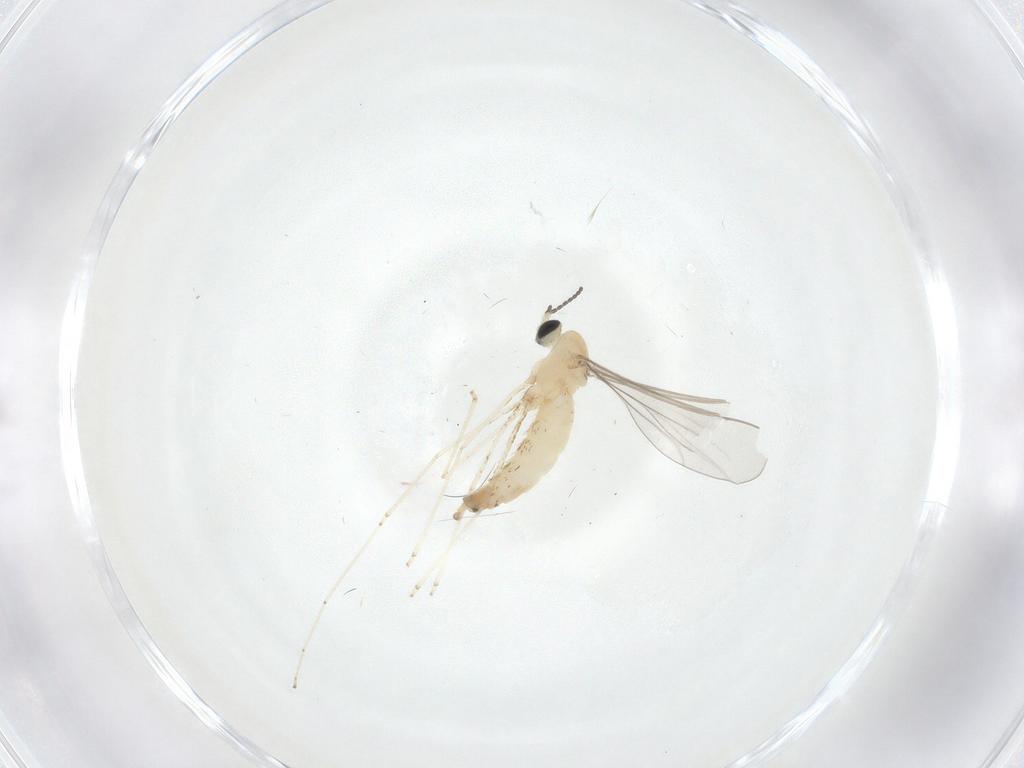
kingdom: Animalia
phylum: Arthropoda
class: Insecta
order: Diptera
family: Cecidomyiidae
